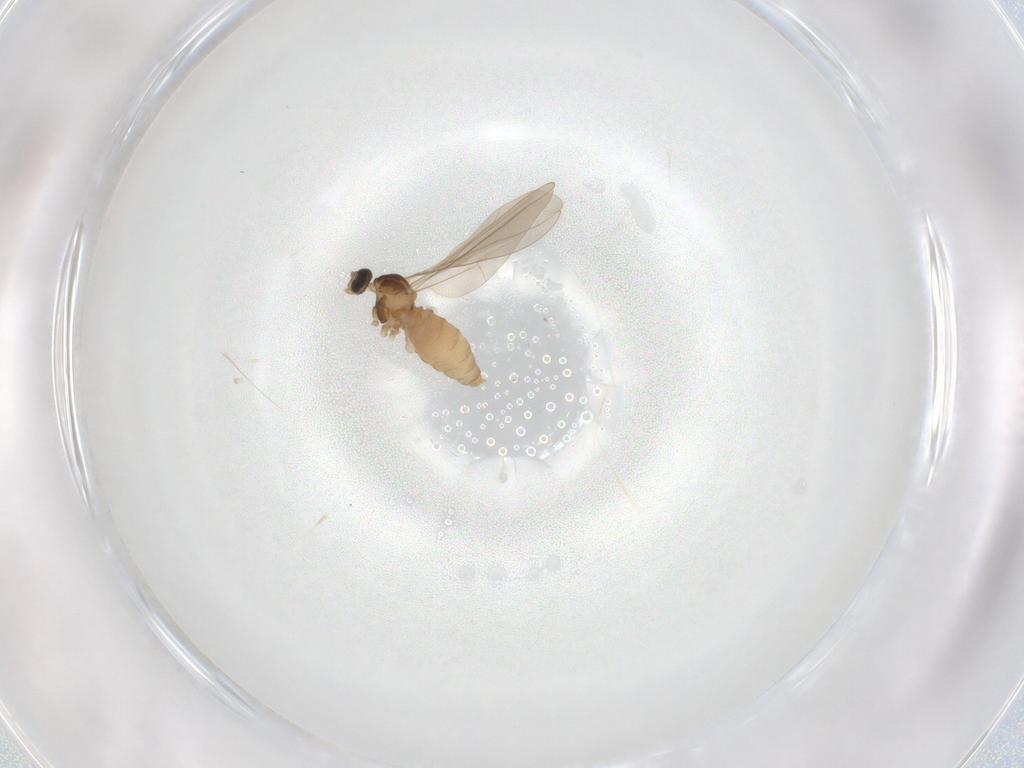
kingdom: Animalia
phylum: Arthropoda
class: Insecta
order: Diptera
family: Cecidomyiidae
